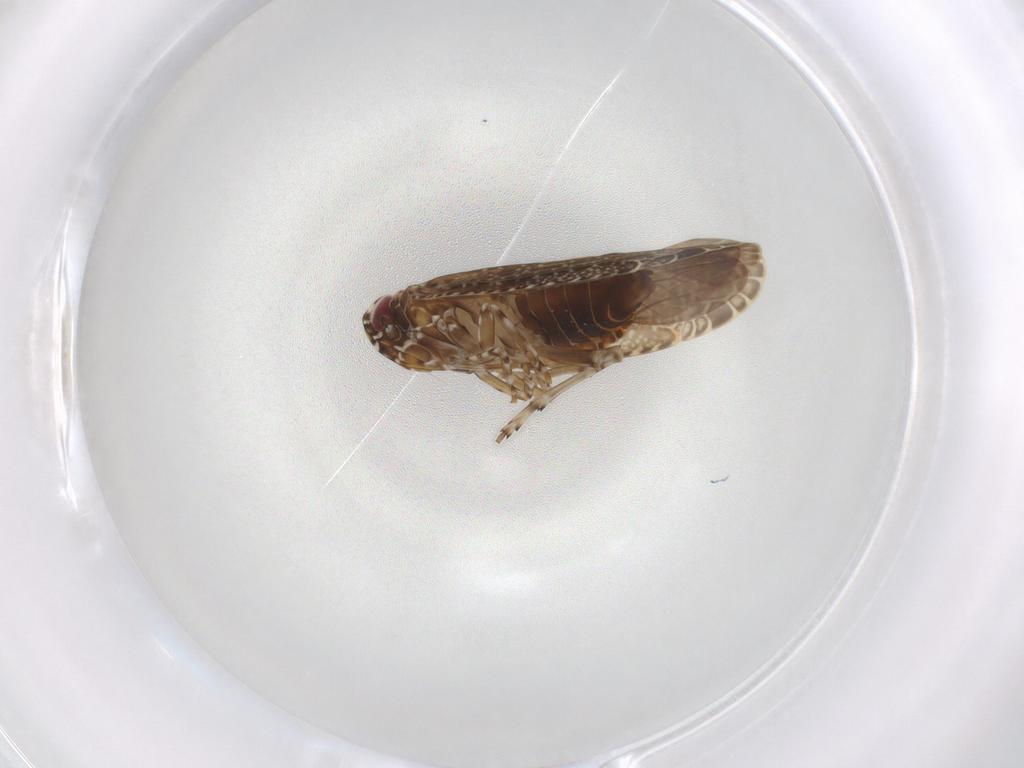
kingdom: Animalia
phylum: Arthropoda
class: Insecta
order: Hemiptera
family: Achilidae
